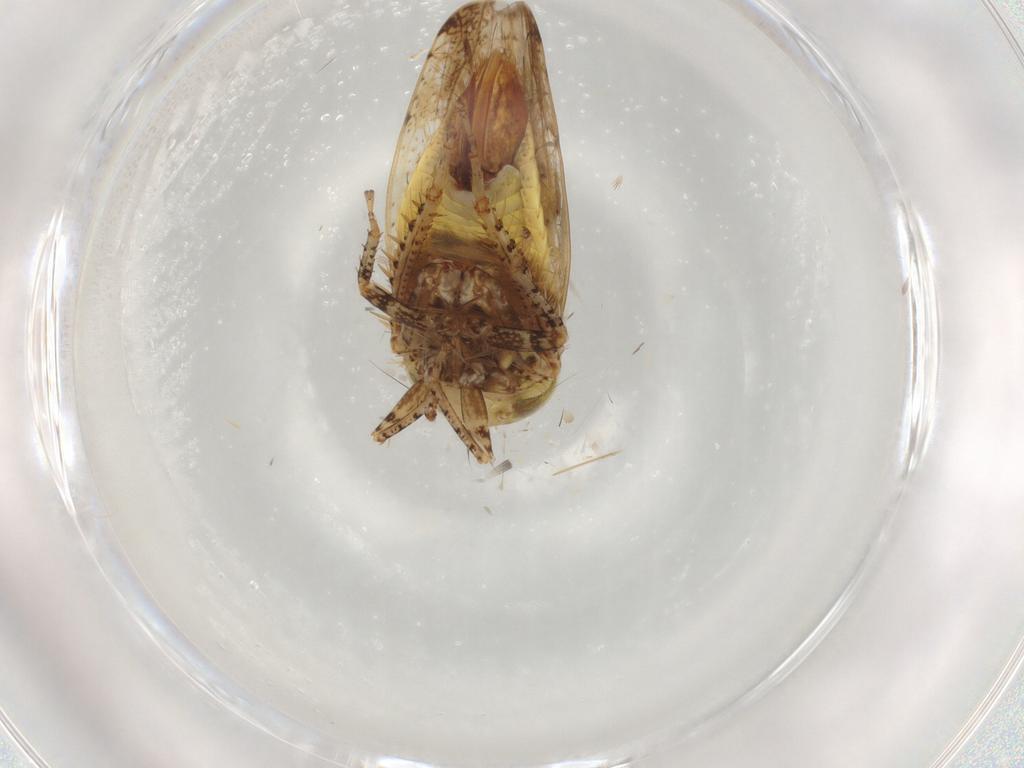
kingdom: Animalia
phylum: Arthropoda
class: Insecta
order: Hemiptera
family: Cicadellidae
